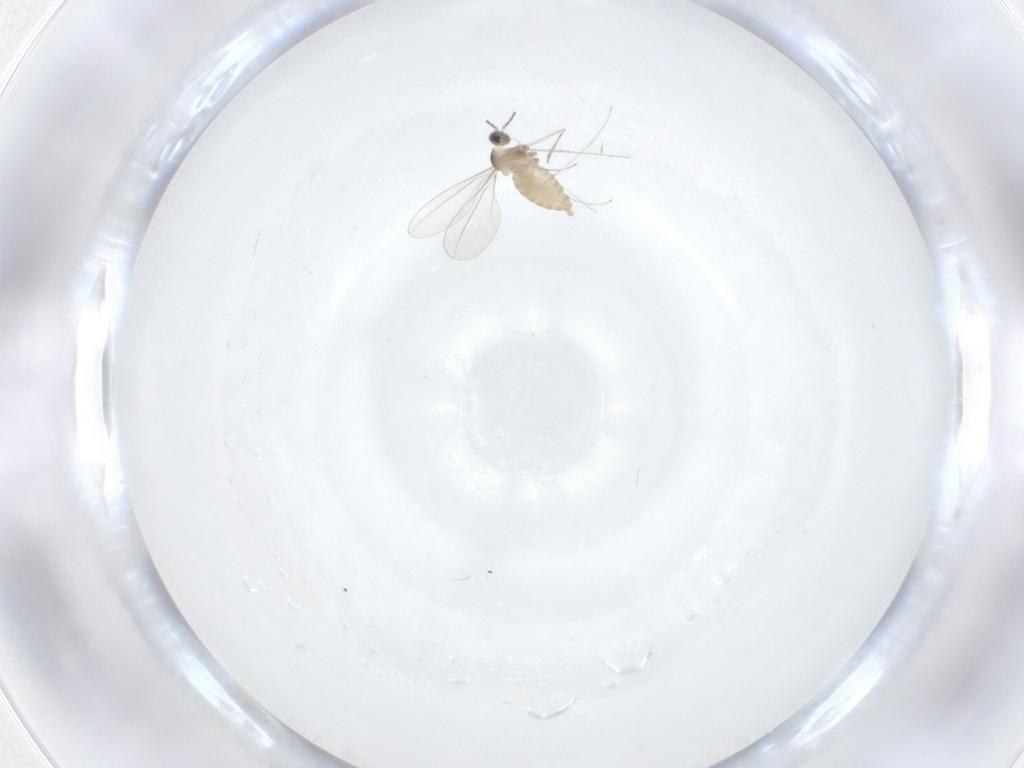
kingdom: Animalia
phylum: Arthropoda
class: Insecta
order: Diptera
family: Cecidomyiidae
